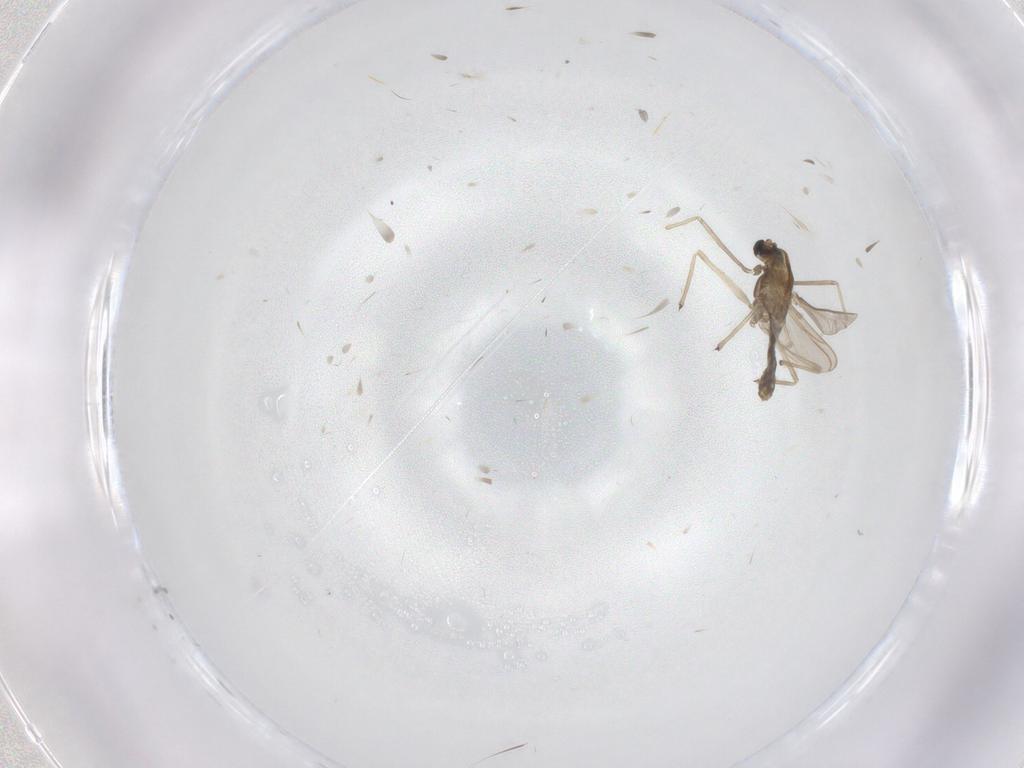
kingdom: Animalia
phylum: Arthropoda
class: Insecta
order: Diptera
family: Chironomidae
